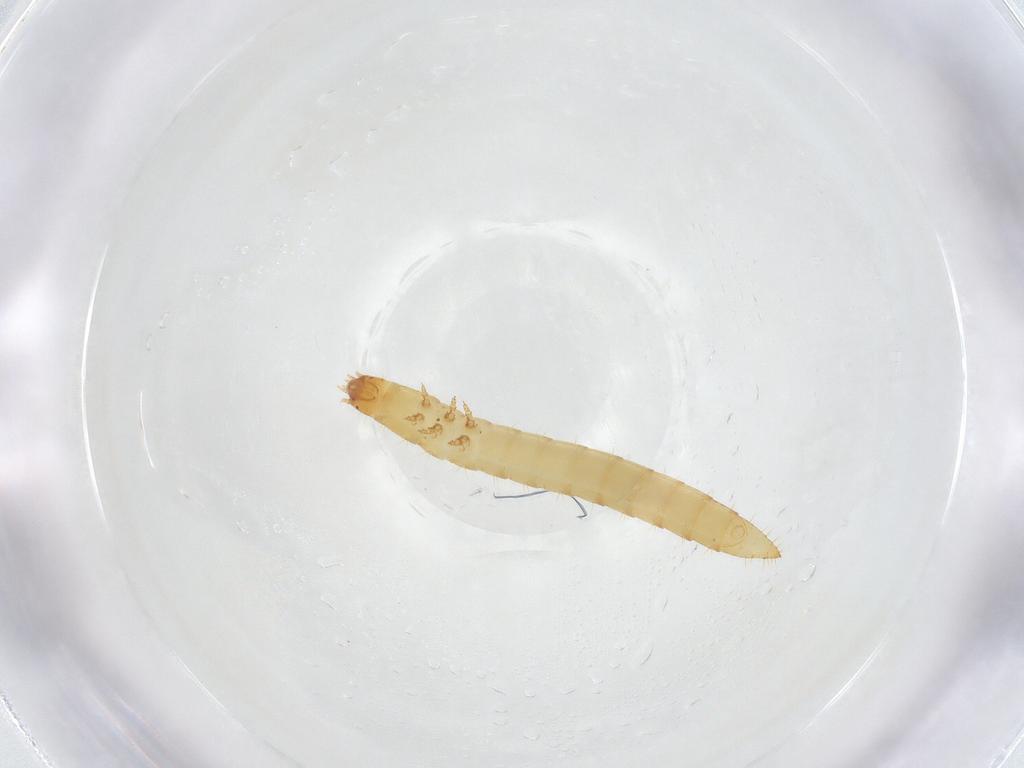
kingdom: Animalia
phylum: Arthropoda
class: Insecta
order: Coleoptera
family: Elateridae
